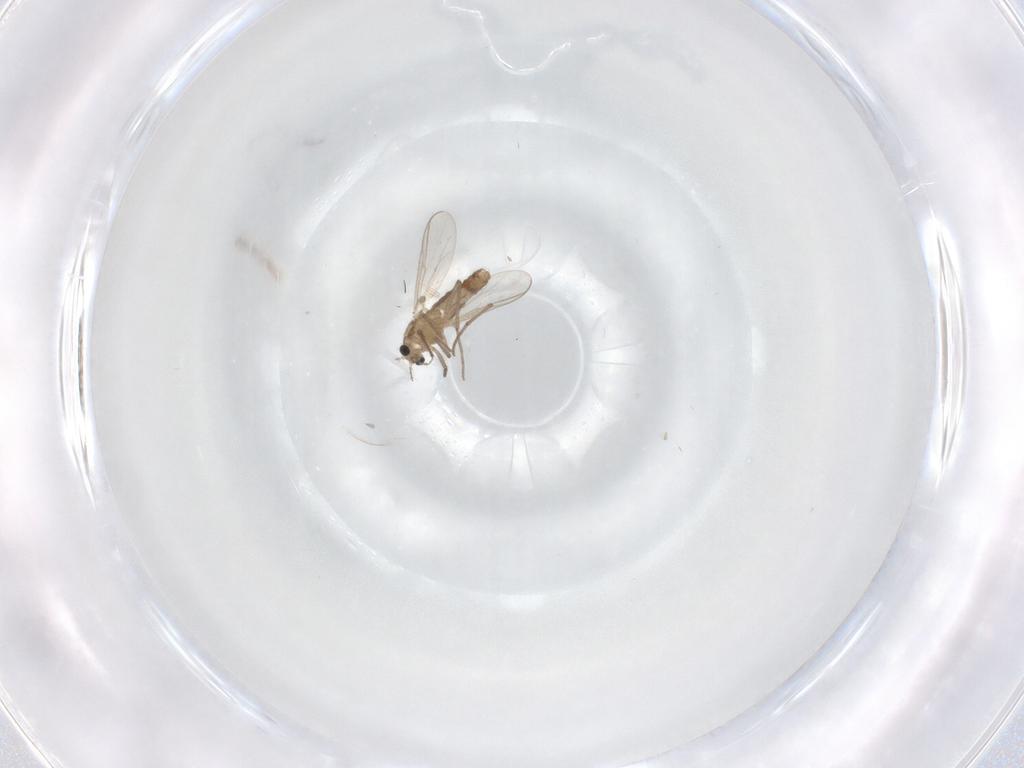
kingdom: Animalia
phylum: Arthropoda
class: Insecta
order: Diptera
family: Chironomidae
